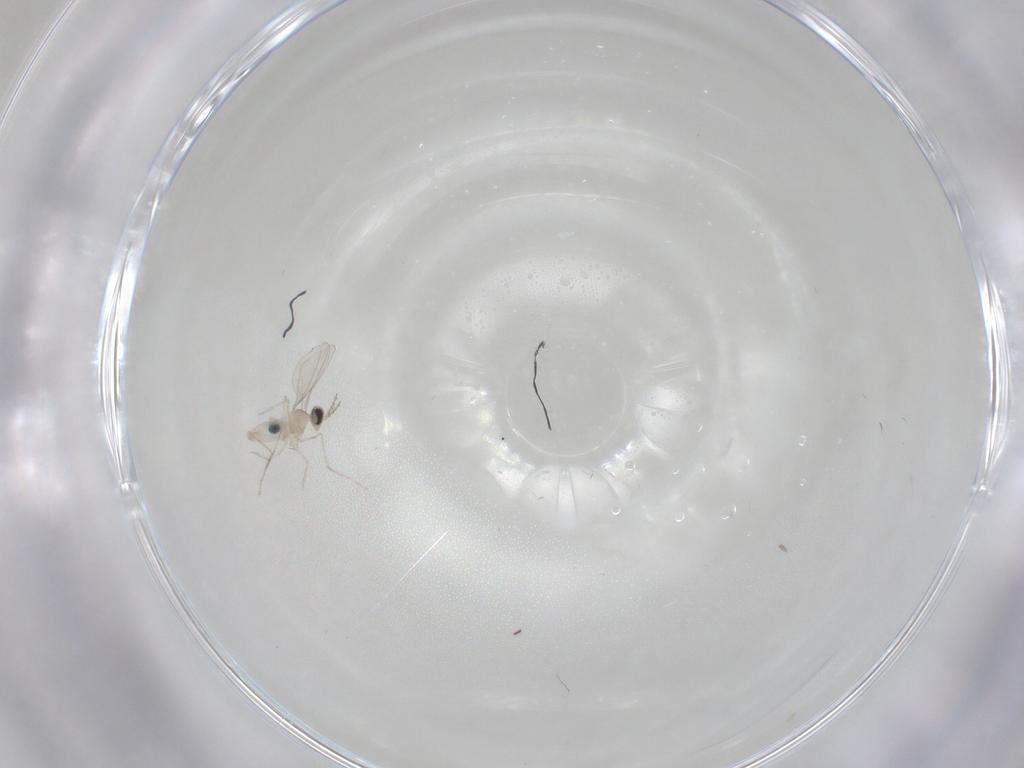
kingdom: Animalia
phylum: Arthropoda
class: Insecta
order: Diptera
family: Cecidomyiidae
